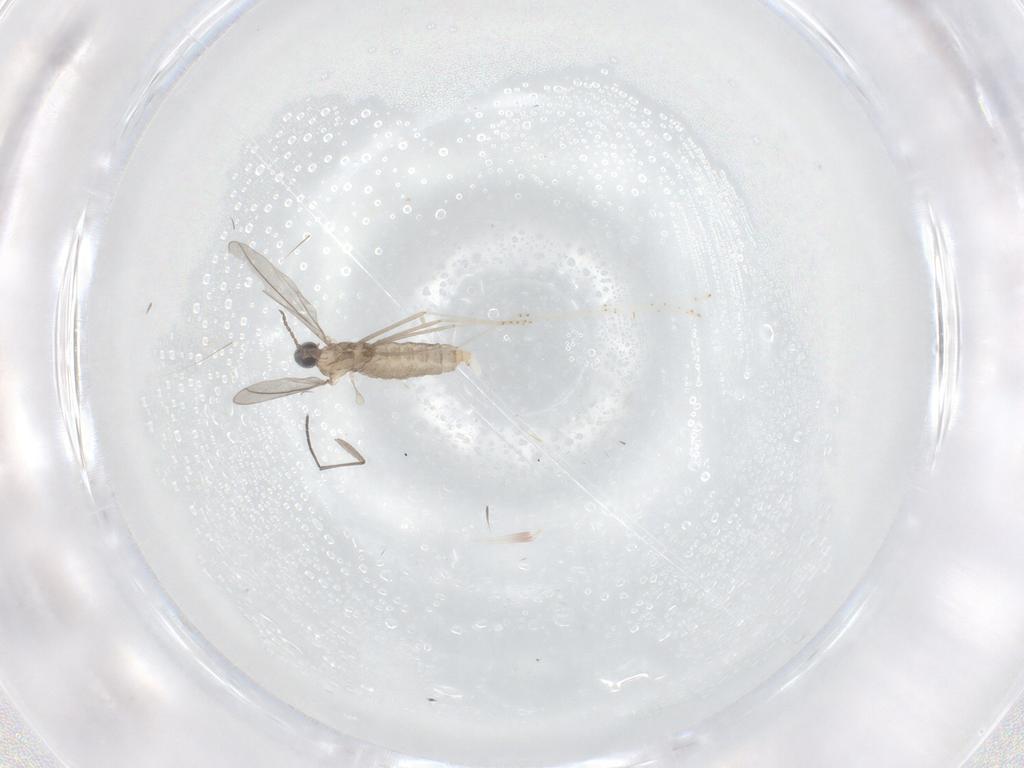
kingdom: Animalia
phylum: Arthropoda
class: Insecta
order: Diptera
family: Cecidomyiidae
